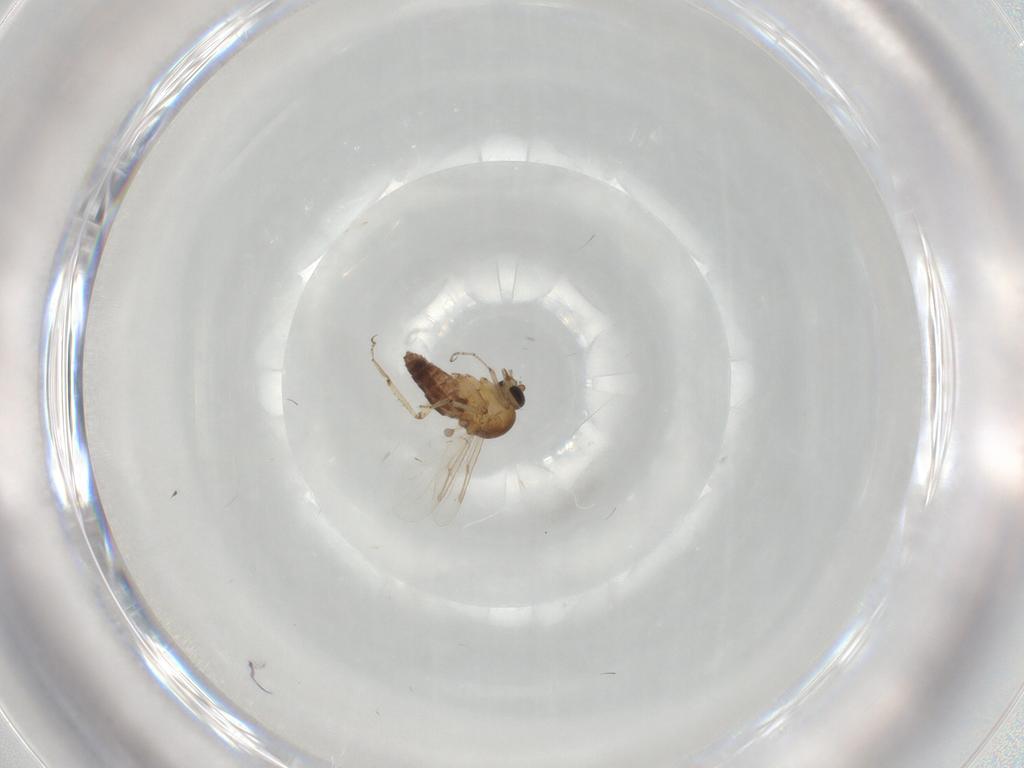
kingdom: Animalia
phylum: Arthropoda
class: Insecta
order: Diptera
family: Ceratopogonidae
